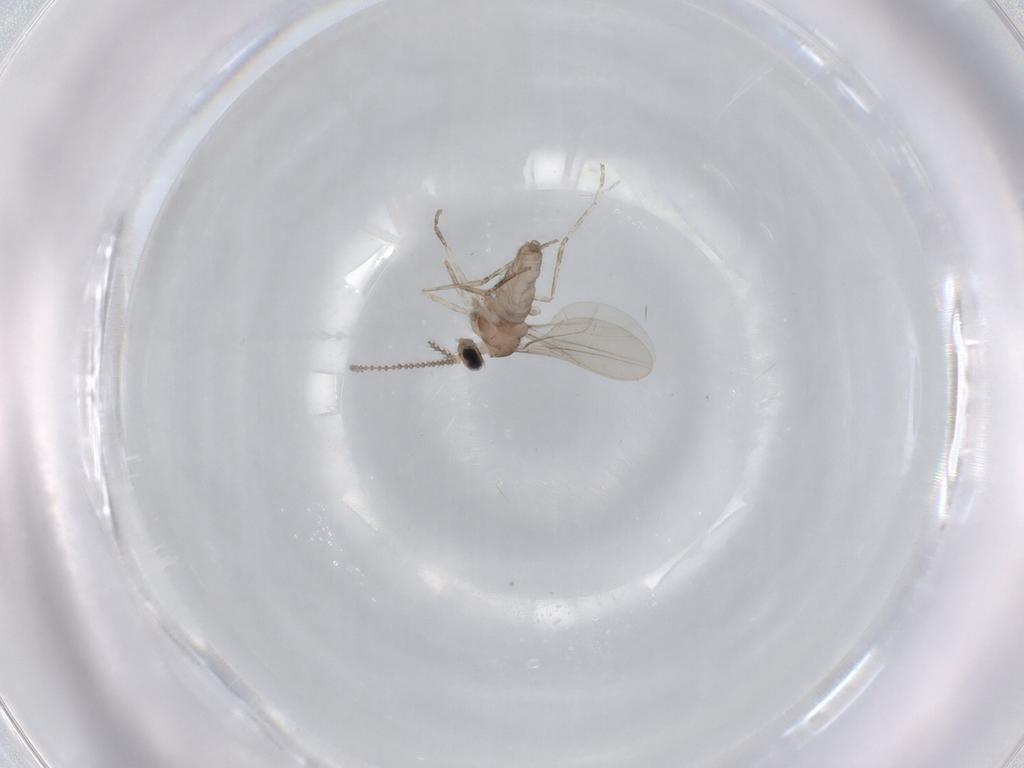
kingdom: Animalia
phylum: Arthropoda
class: Insecta
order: Diptera
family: Cecidomyiidae
